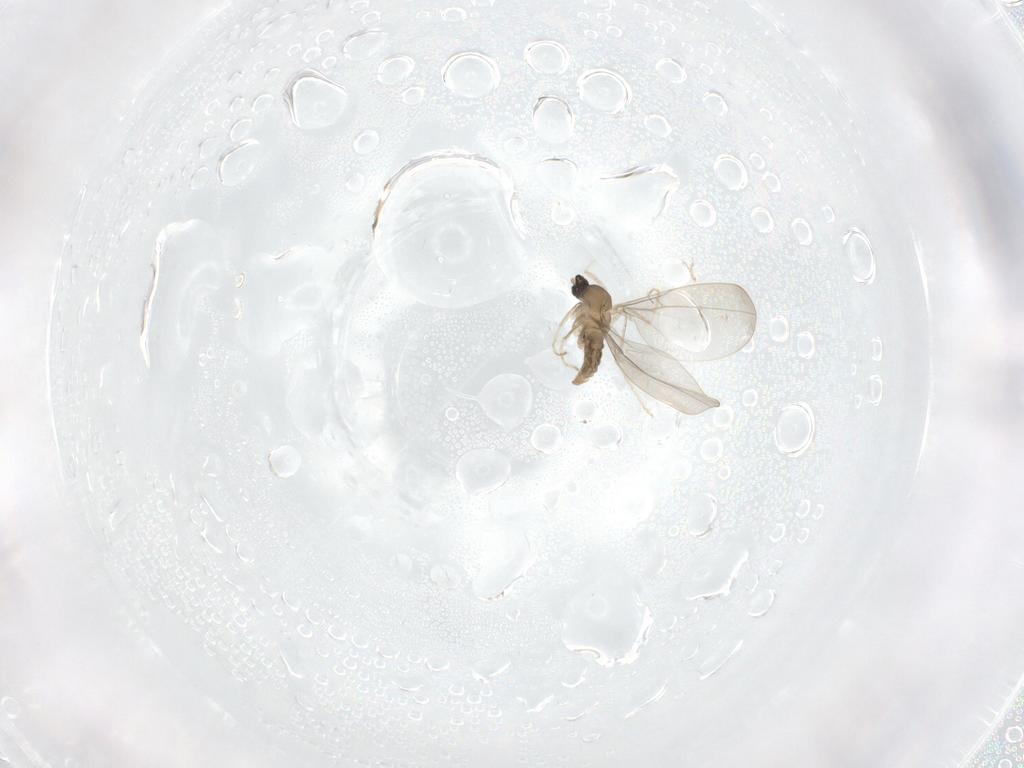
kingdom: Animalia
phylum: Arthropoda
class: Insecta
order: Diptera
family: Cecidomyiidae
